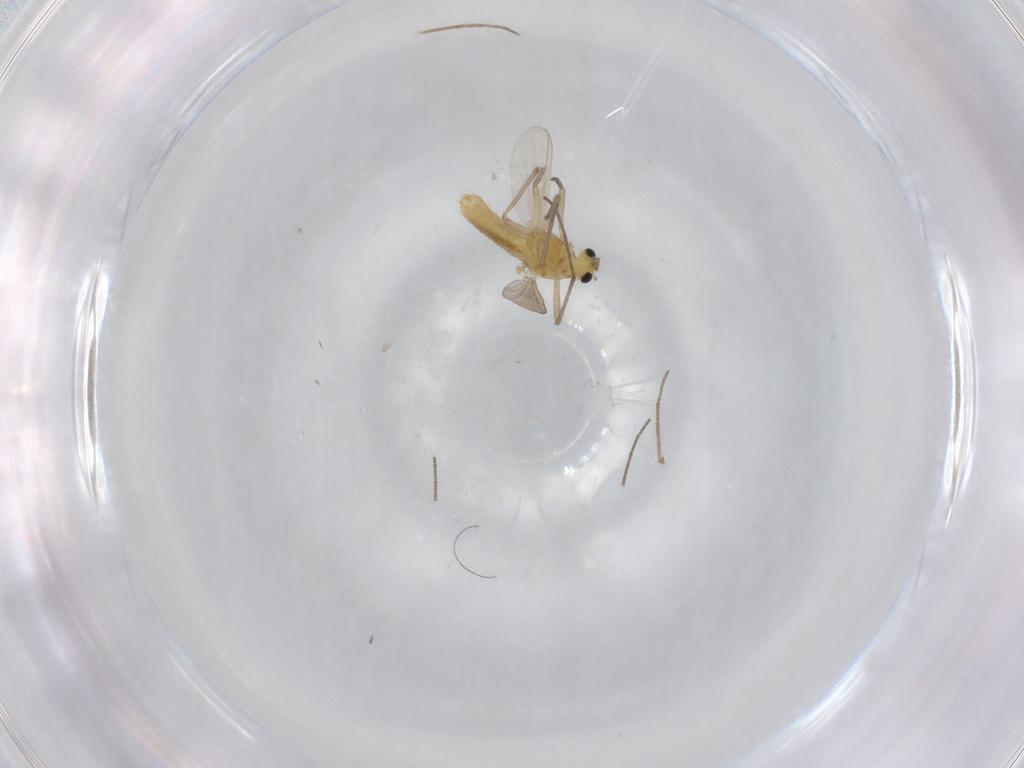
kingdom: Animalia
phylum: Arthropoda
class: Insecta
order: Diptera
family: Chironomidae
